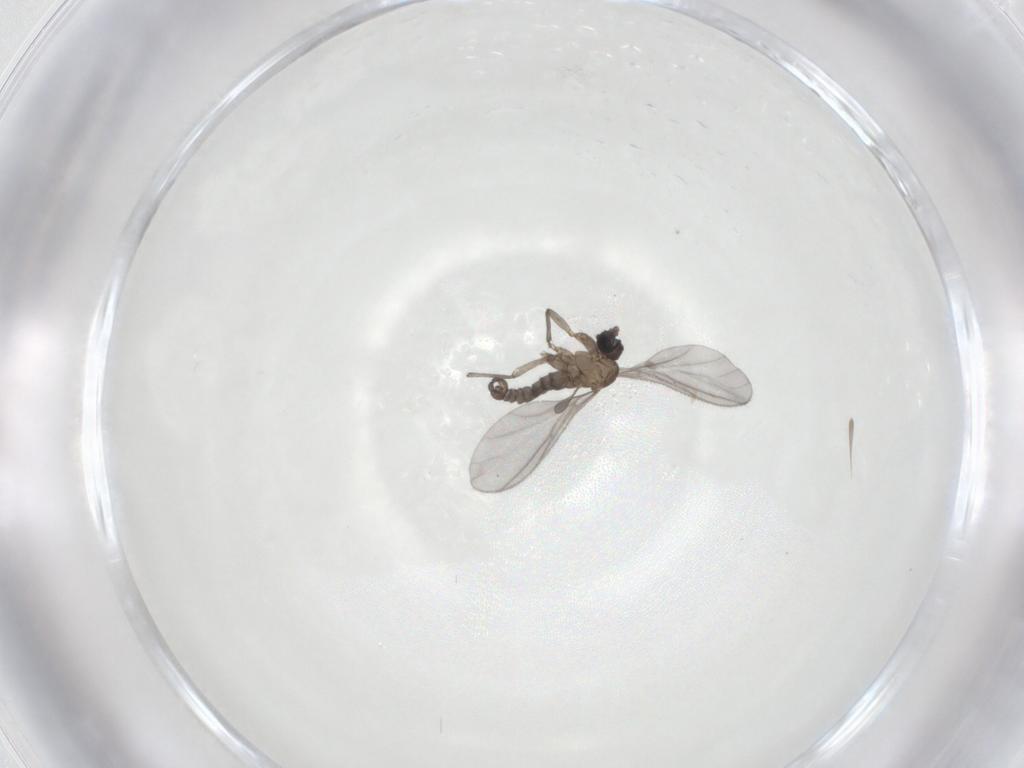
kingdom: Animalia
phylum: Arthropoda
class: Insecta
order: Diptera
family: Sciaridae
